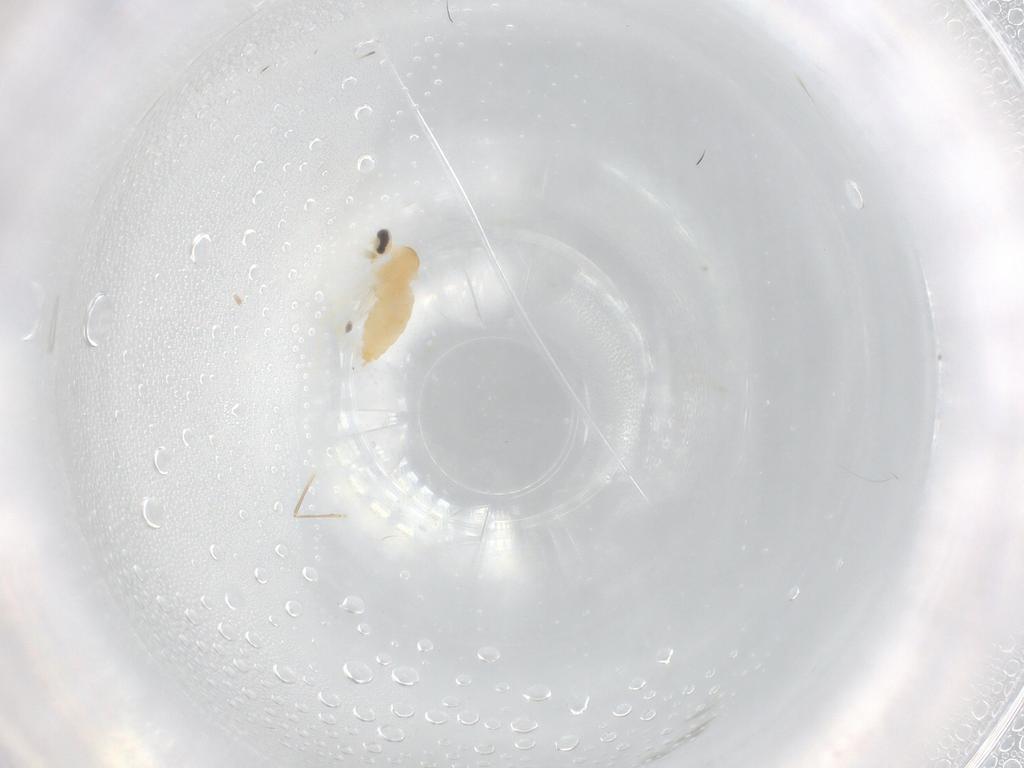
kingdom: Animalia
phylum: Arthropoda
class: Insecta
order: Diptera
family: Cecidomyiidae
